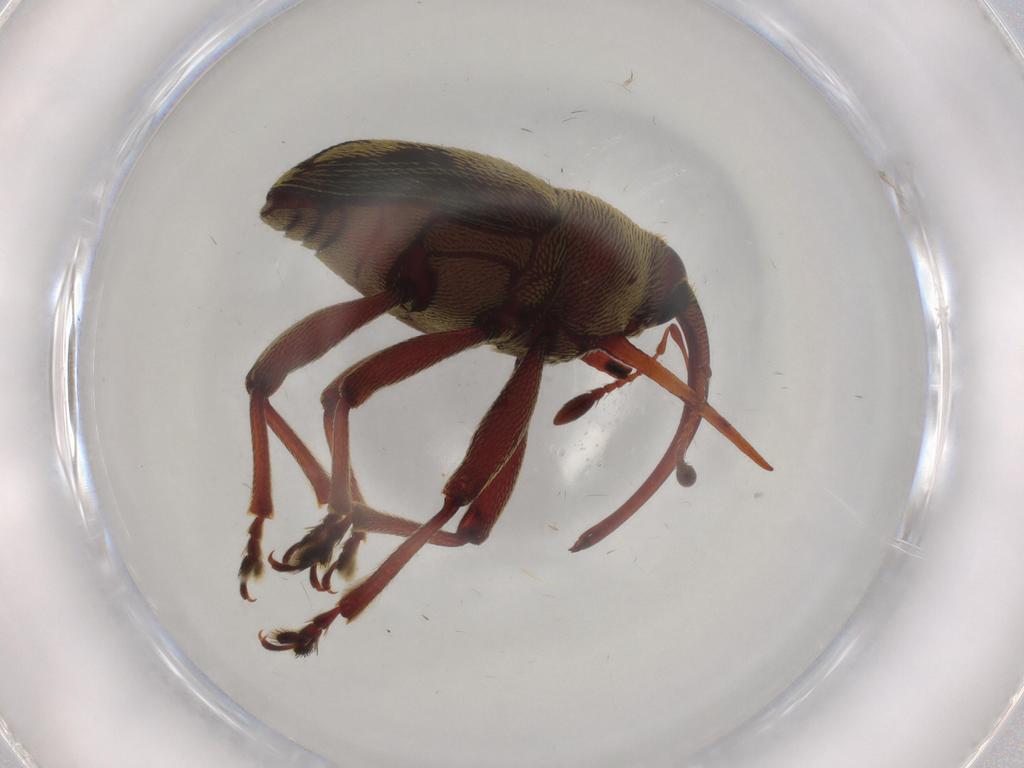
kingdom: Animalia
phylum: Arthropoda
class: Insecta
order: Coleoptera
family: Curculionidae
